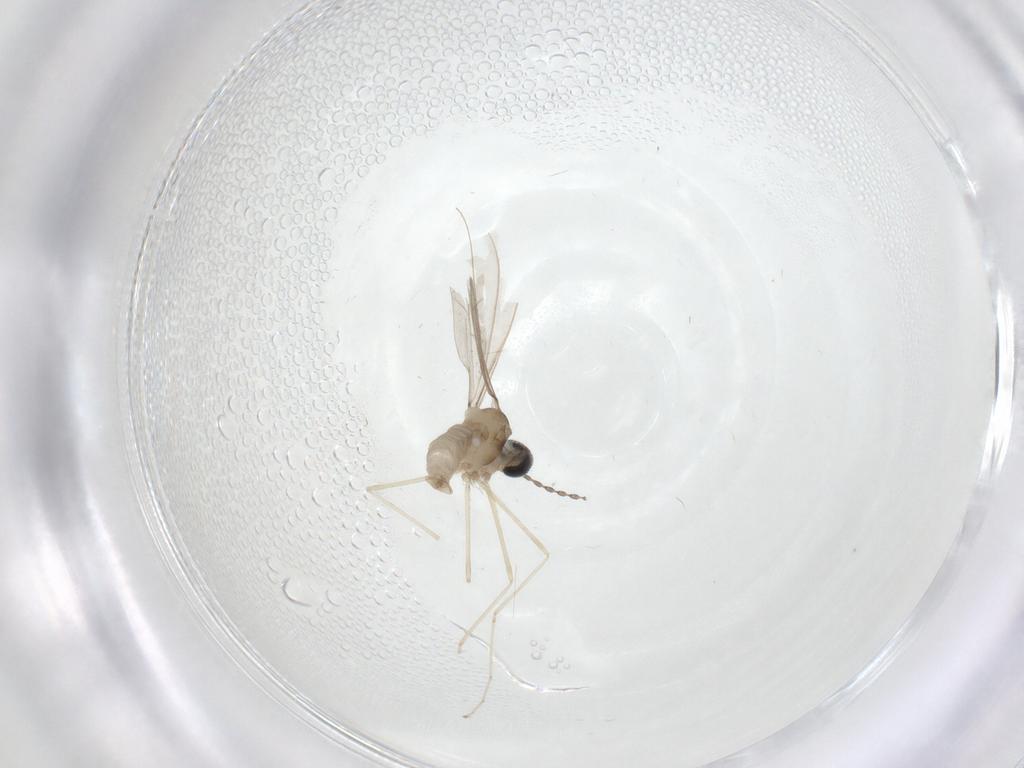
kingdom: Animalia
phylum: Arthropoda
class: Insecta
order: Diptera
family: Cecidomyiidae
